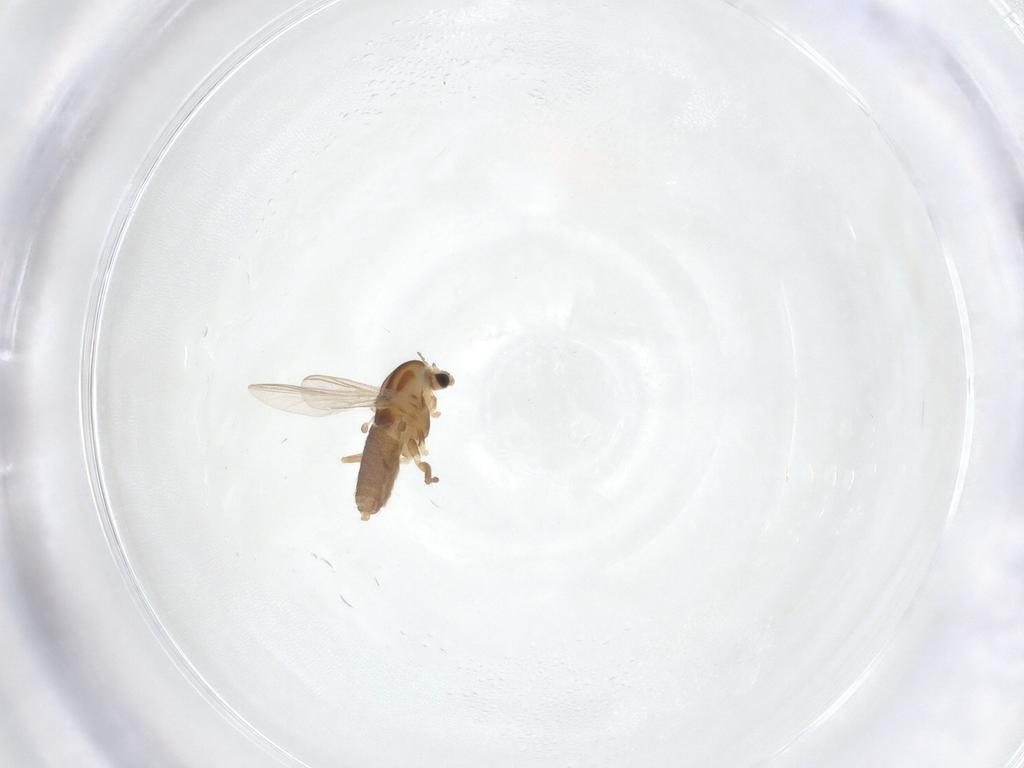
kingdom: Animalia
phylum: Arthropoda
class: Insecta
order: Diptera
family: Chironomidae
